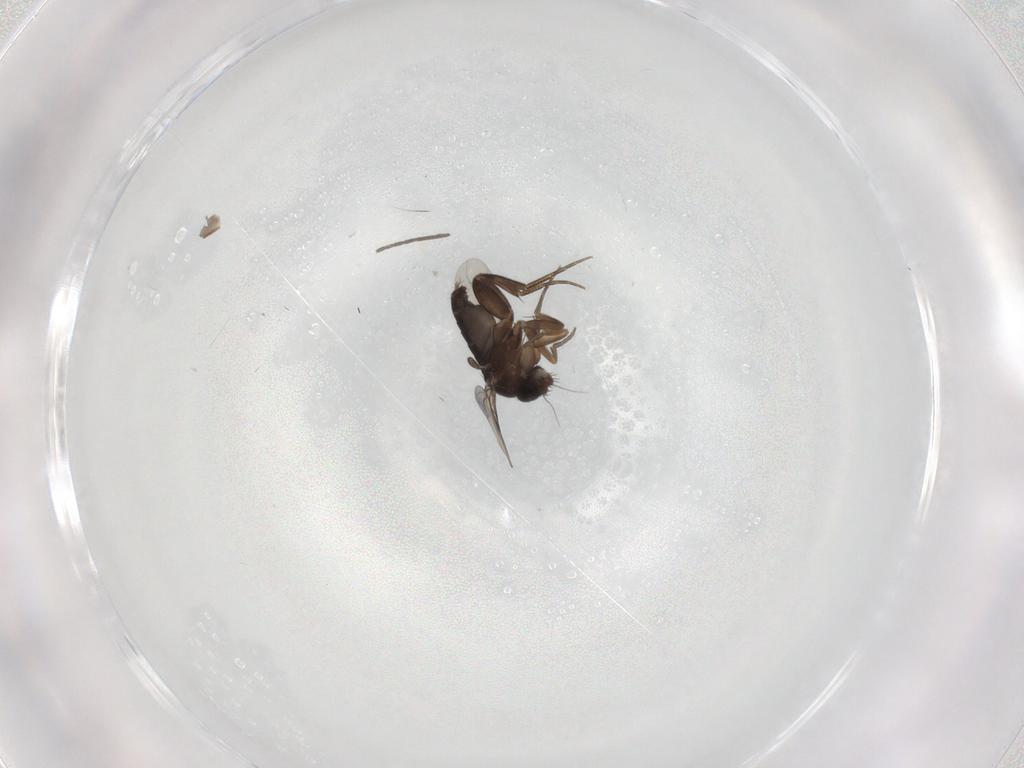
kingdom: Animalia
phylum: Arthropoda
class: Insecta
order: Diptera
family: Phoridae
